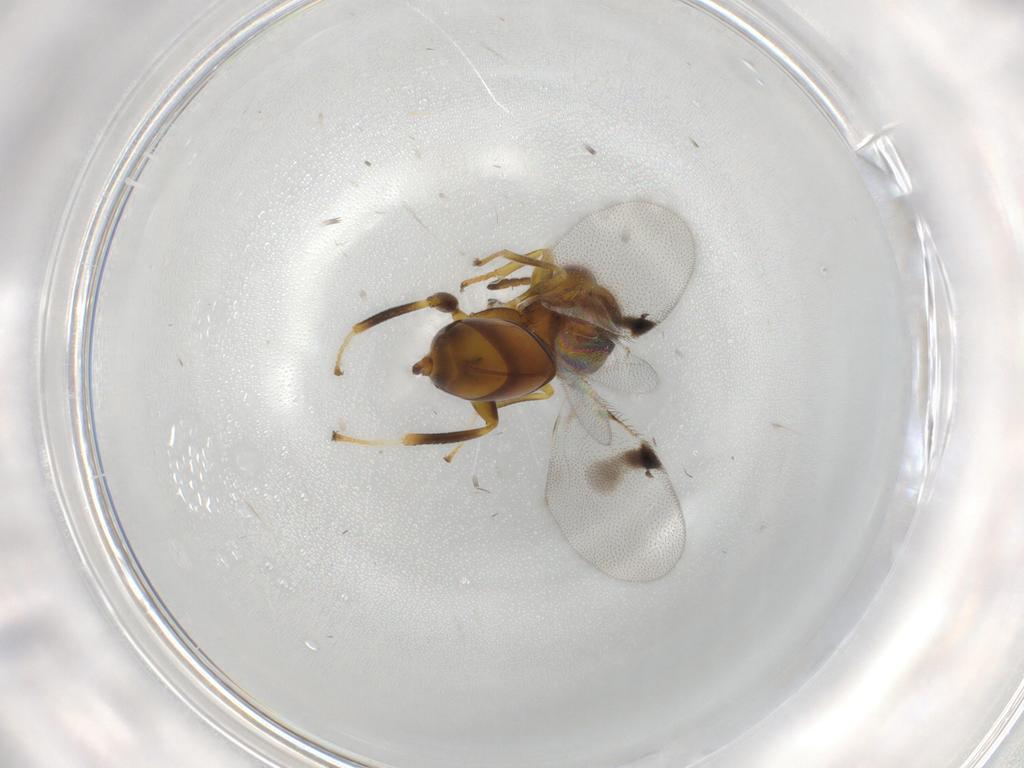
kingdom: Animalia
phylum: Arthropoda
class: Insecta
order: Hymenoptera
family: Eurytomidae
